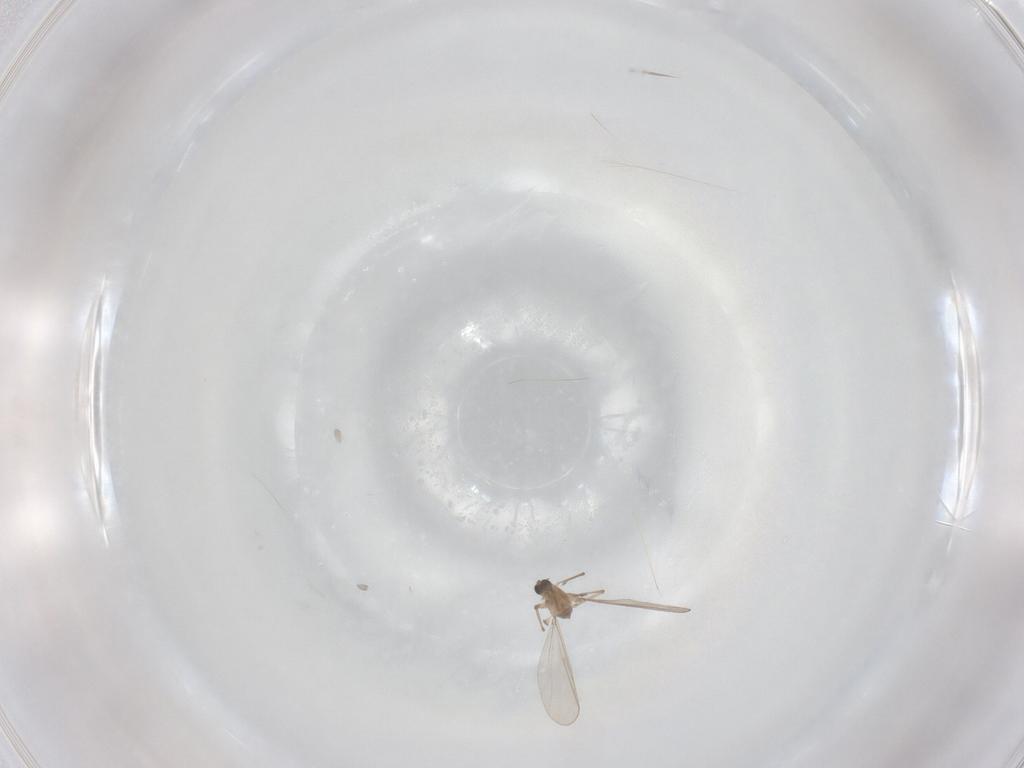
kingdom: Animalia
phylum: Arthropoda
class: Insecta
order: Diptera
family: Chironomidae
